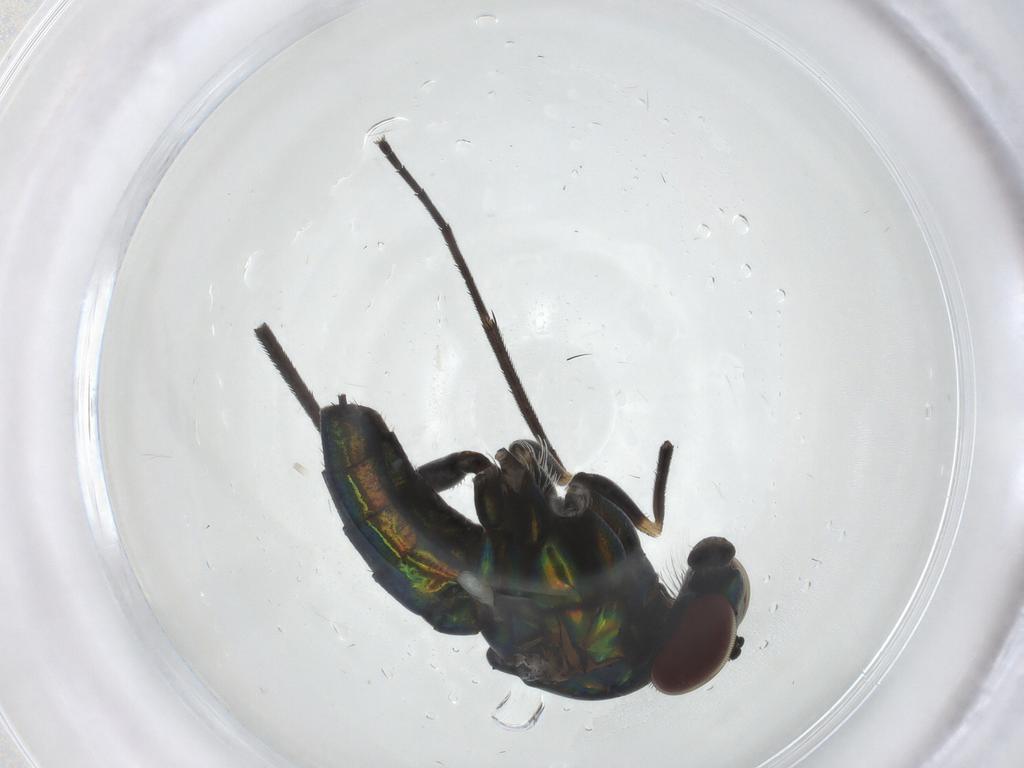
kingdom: Animalia
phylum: Arthropoda
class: Insecta
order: Diptera
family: Dolichopodidae
